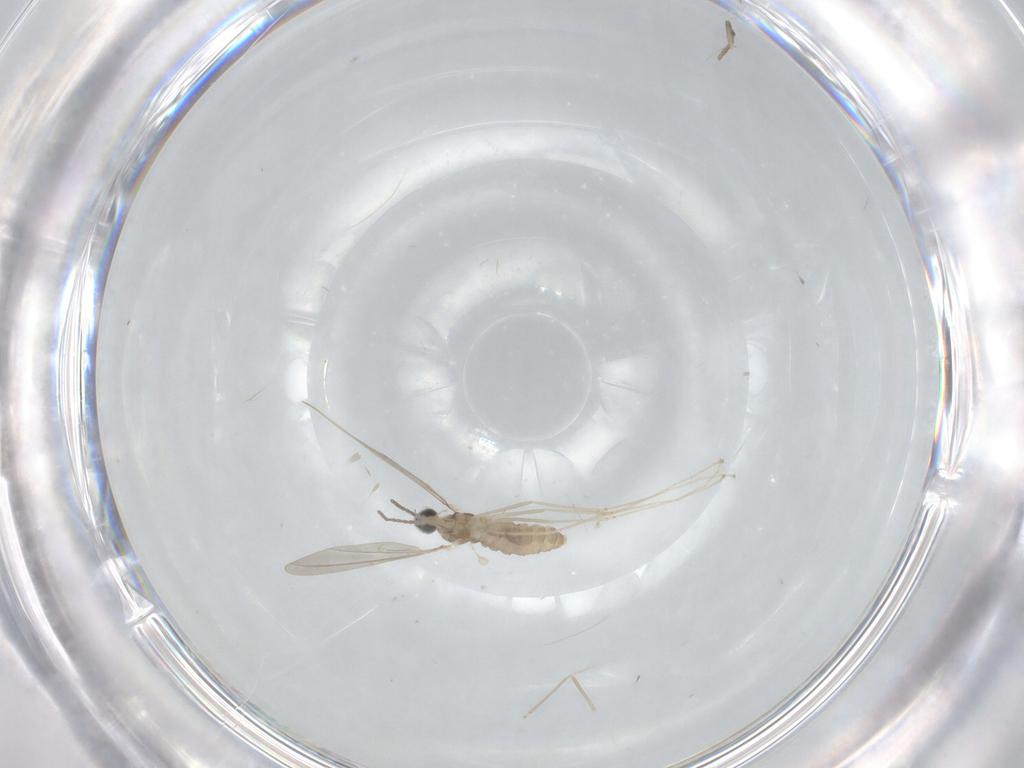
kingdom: Animalia
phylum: Arthropoda
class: Insecta
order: Diptera
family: Cecidomyiidae
